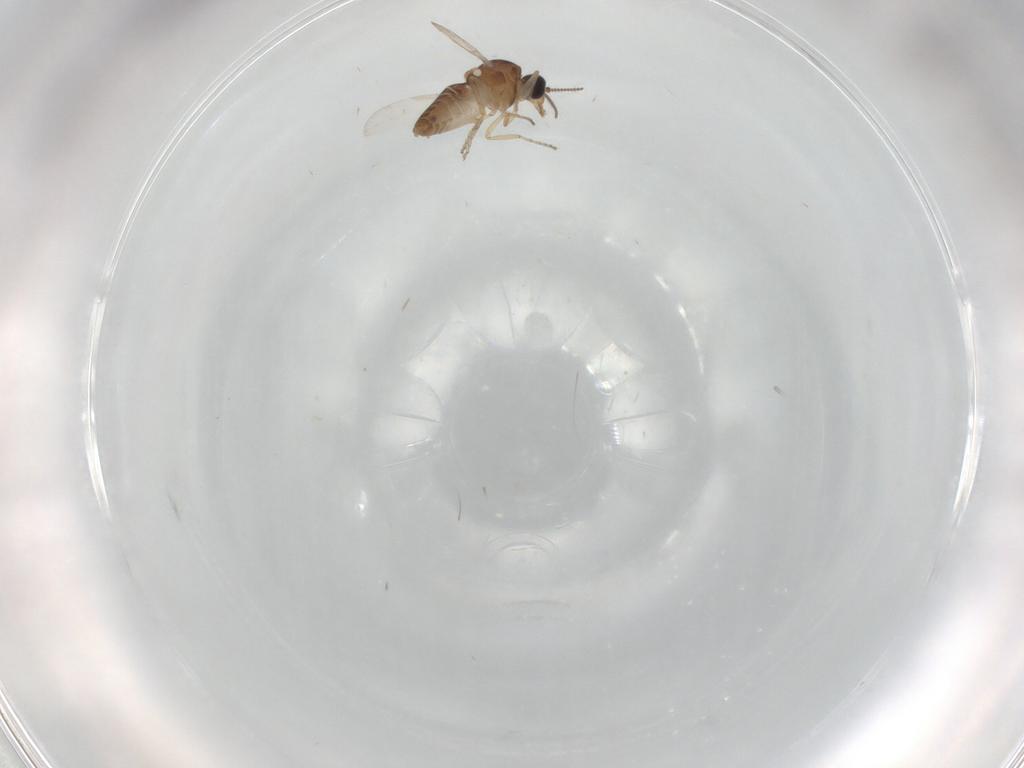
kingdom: Animalia
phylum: Arthropoda
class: Insecta
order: Diptera
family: Ceratopogonidae
